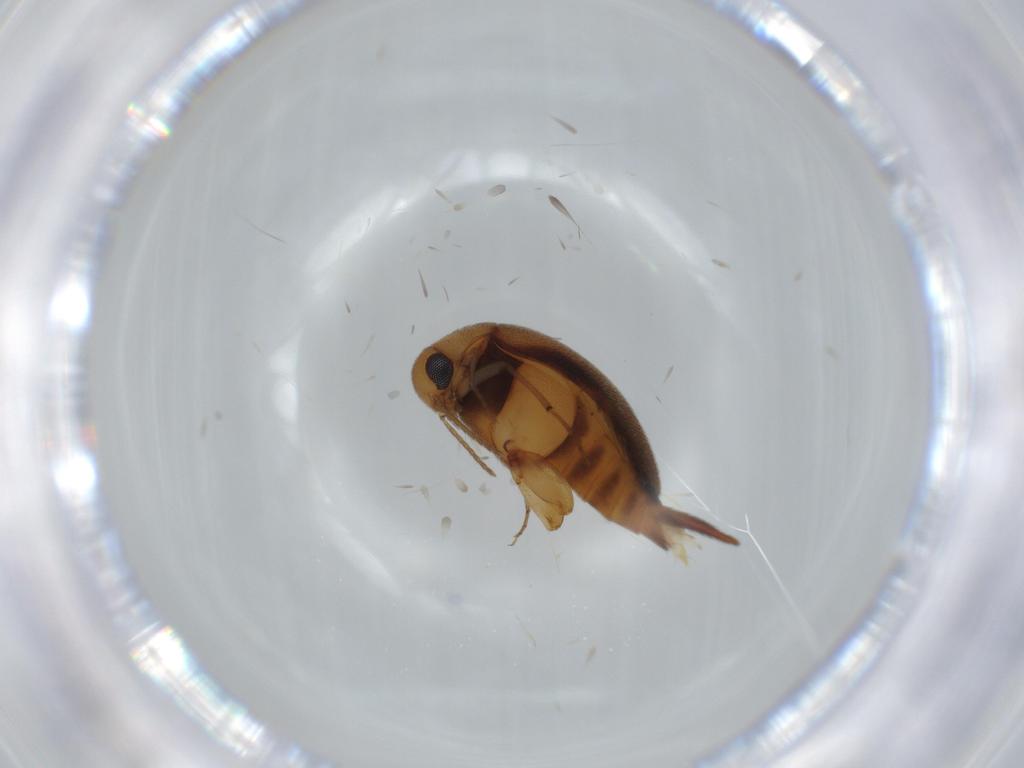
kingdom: Animalia
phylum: Arthropoda
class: Insecta
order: Coleoptera
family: Mordellidae
